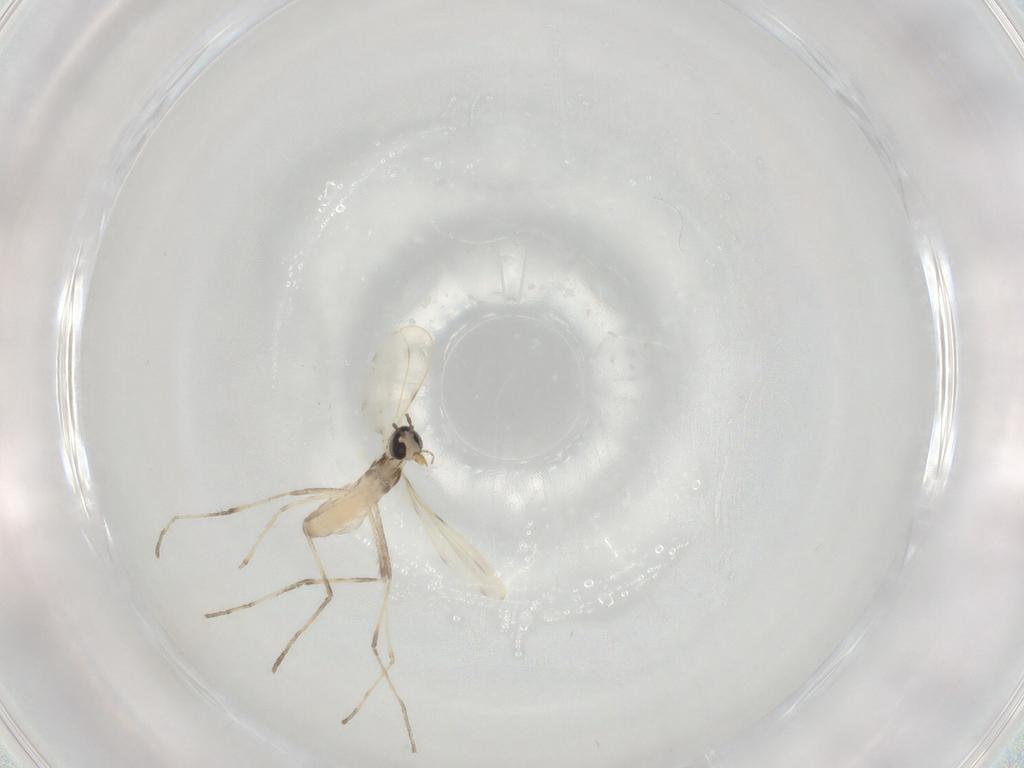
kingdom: Animalia
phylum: Arthropoda
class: Insecta
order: Diptera
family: Cecidomyiidae
